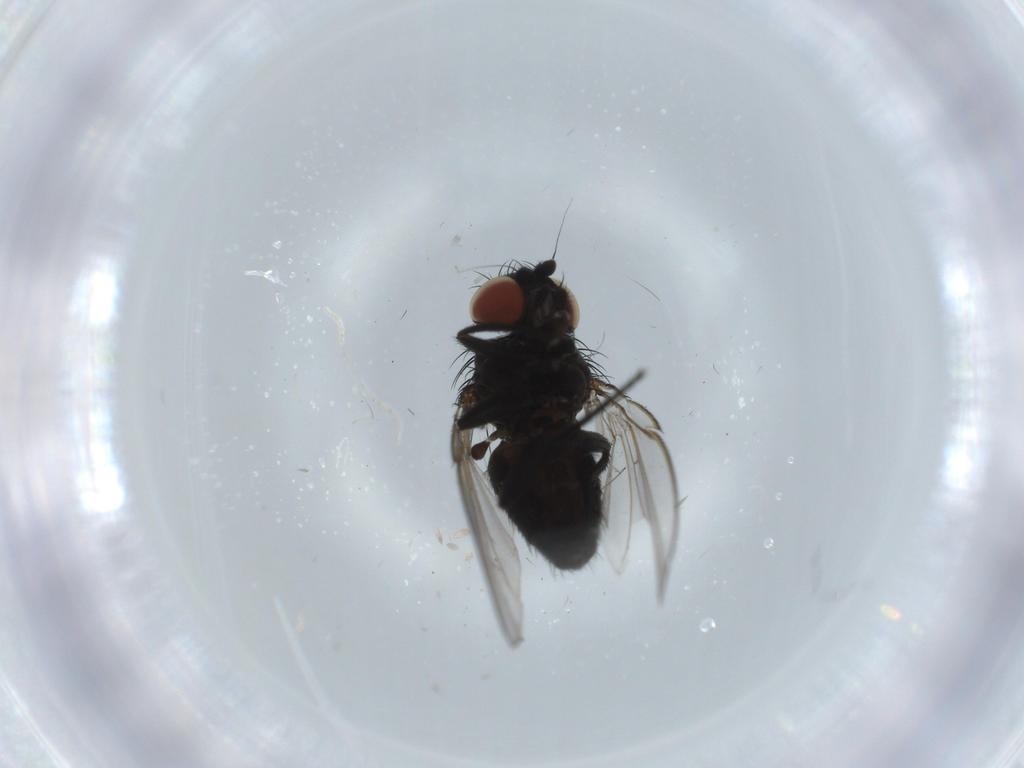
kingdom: Animalia
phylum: Arthropoda
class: Insecta
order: Diptera
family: Milichiidae
